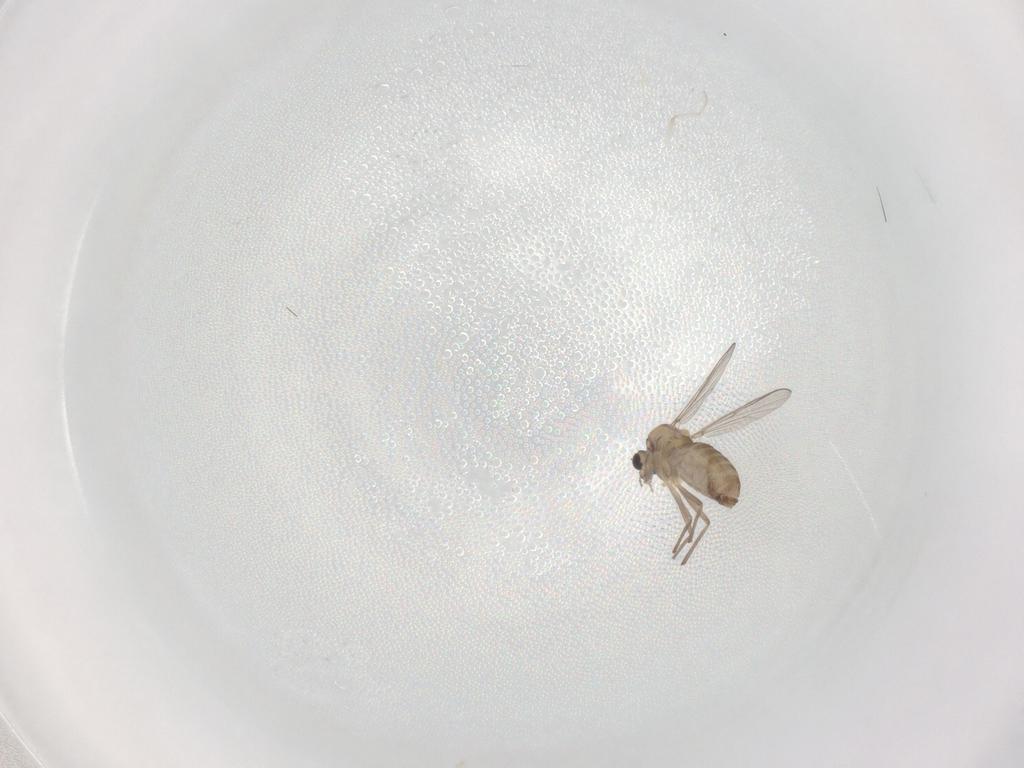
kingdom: Animalia
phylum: Arthropoda
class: Insecta
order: Diptera
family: Chironomidae
